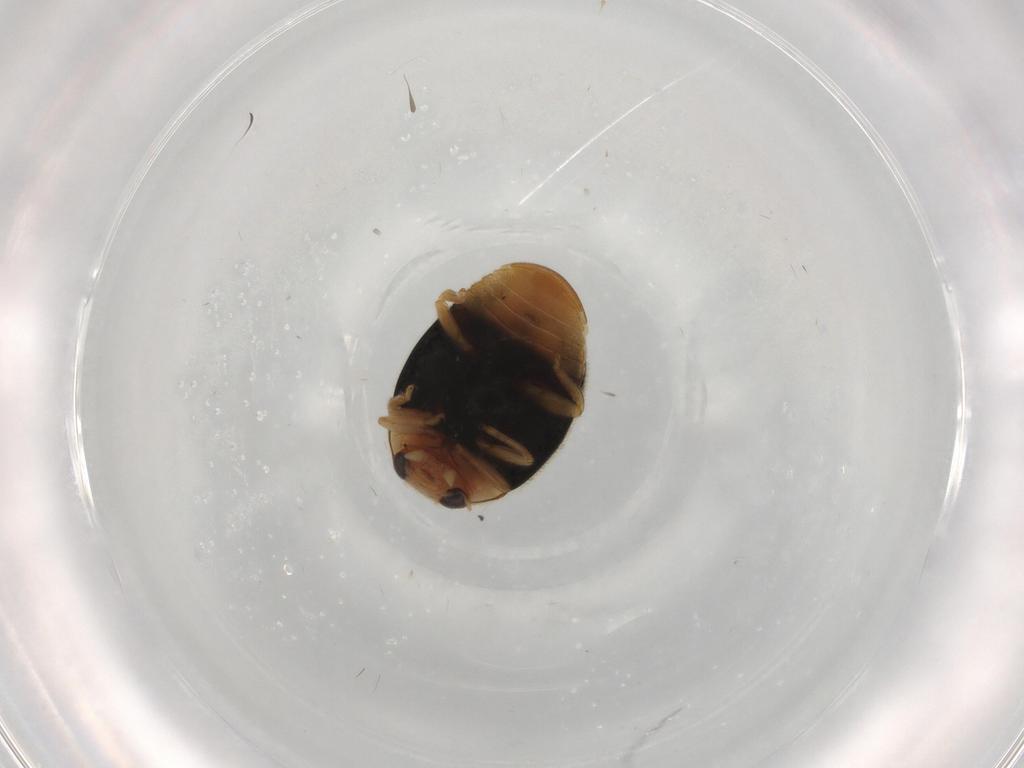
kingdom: Animalia
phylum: Arthropoda
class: Insecta
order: Coleoptera
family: Coccinellidae
